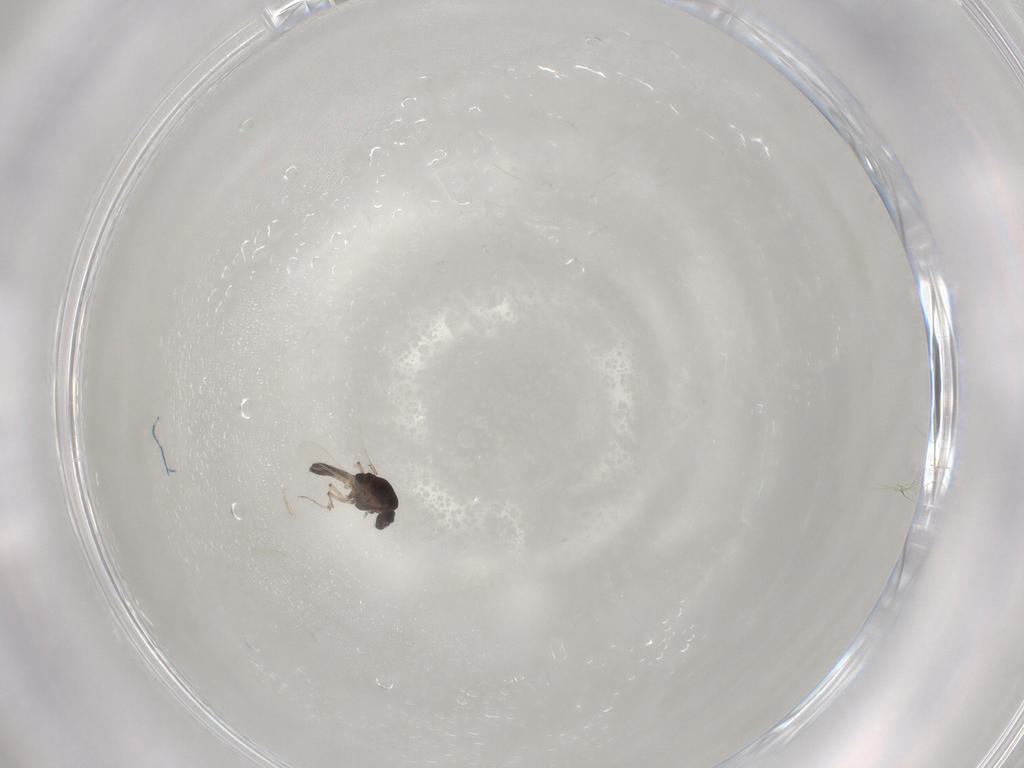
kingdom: Animalia
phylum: Arthropoda
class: Insecta
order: Diptera
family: Chironomidae
